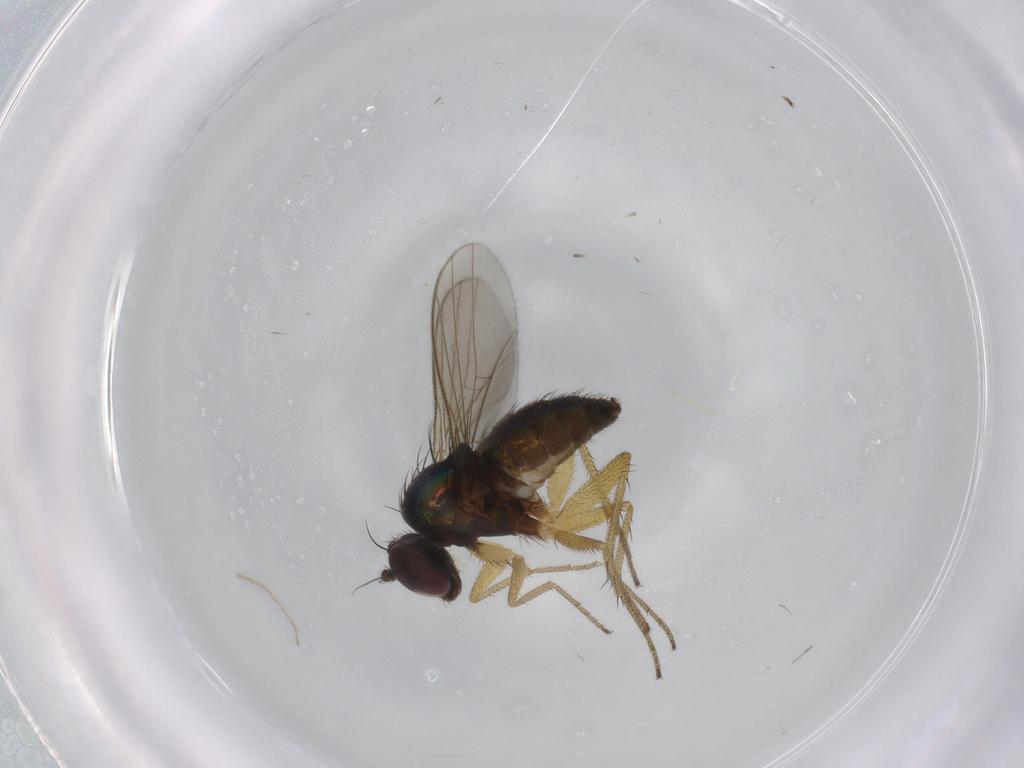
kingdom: Animalia
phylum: Arthropoda
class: Insecta
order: Diptera
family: Dolichopodidae
